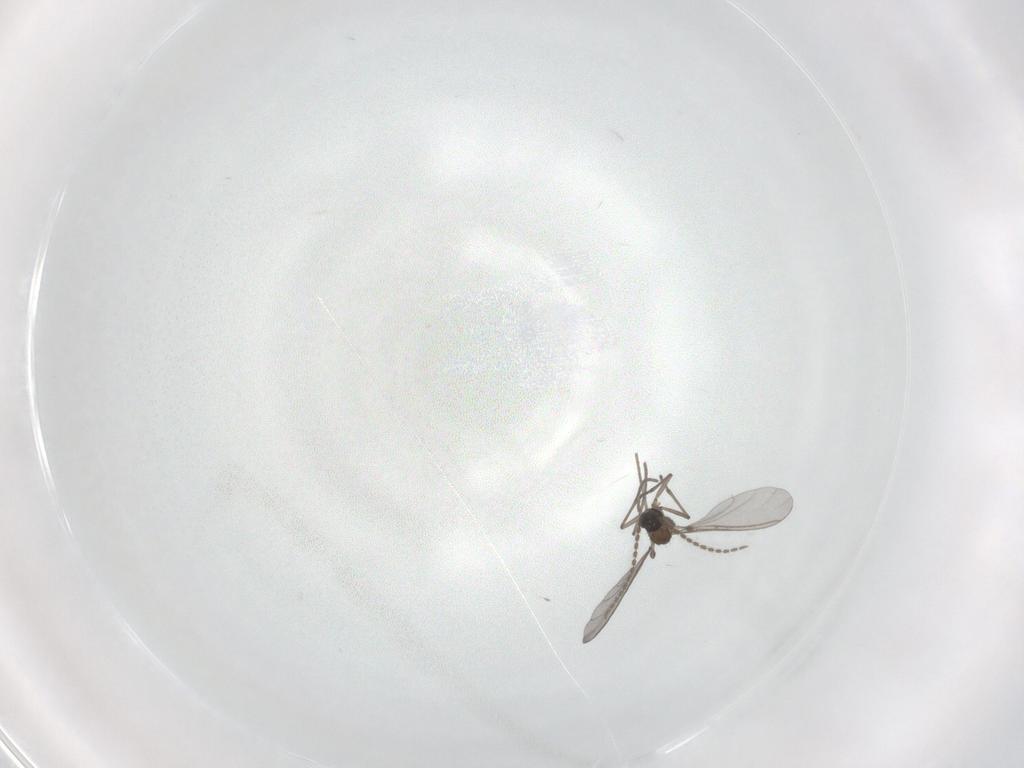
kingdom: Animalia
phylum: Arthropoda
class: Insecta
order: Diptera
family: Sciaridae
